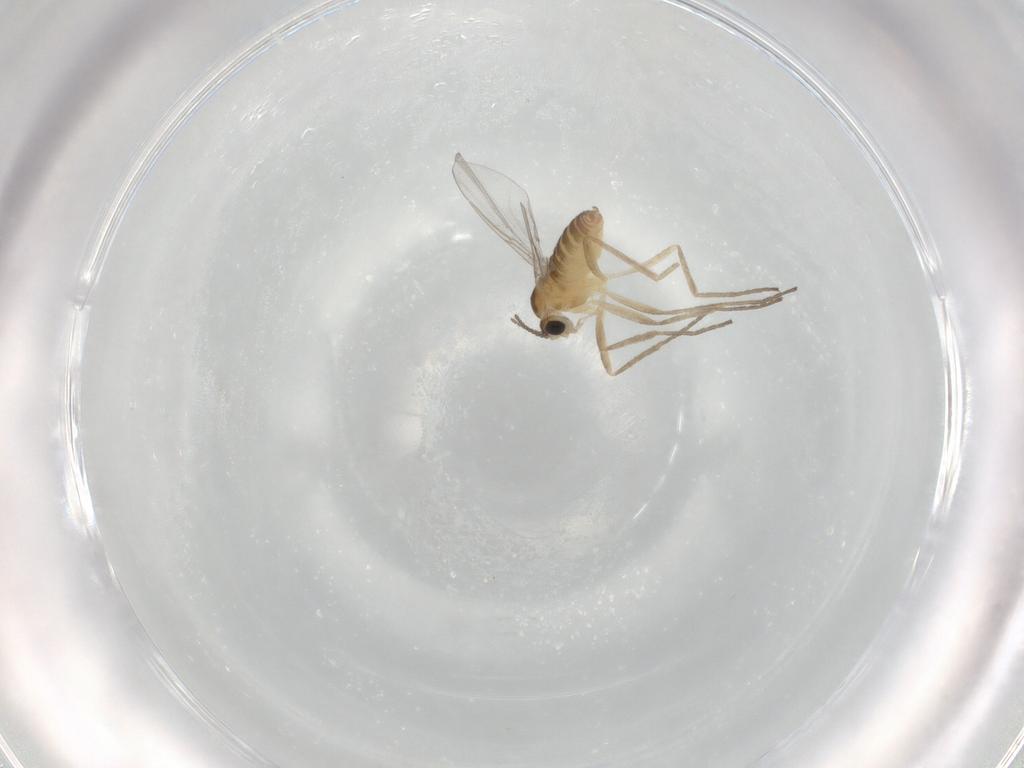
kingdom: Animalia
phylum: Arthropoda
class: Insecta
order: Diptera
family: Cecidomyiidae
